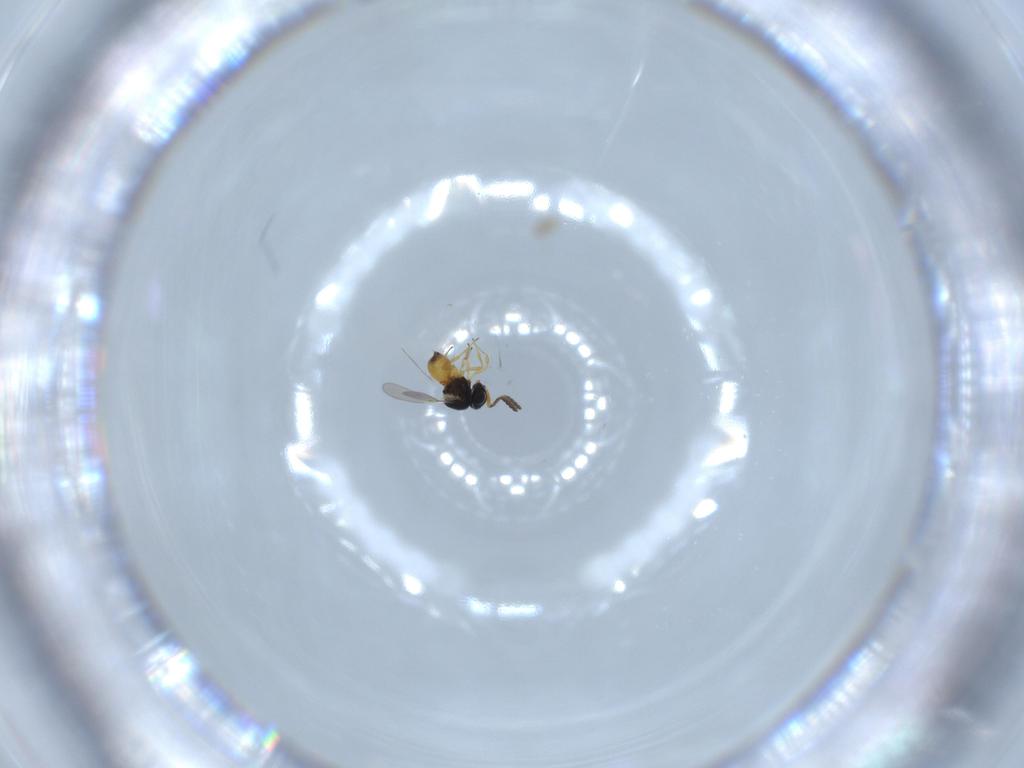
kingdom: Animalia
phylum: Arthropoda
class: Insecta
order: Hymenoptera
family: Scelionidae
